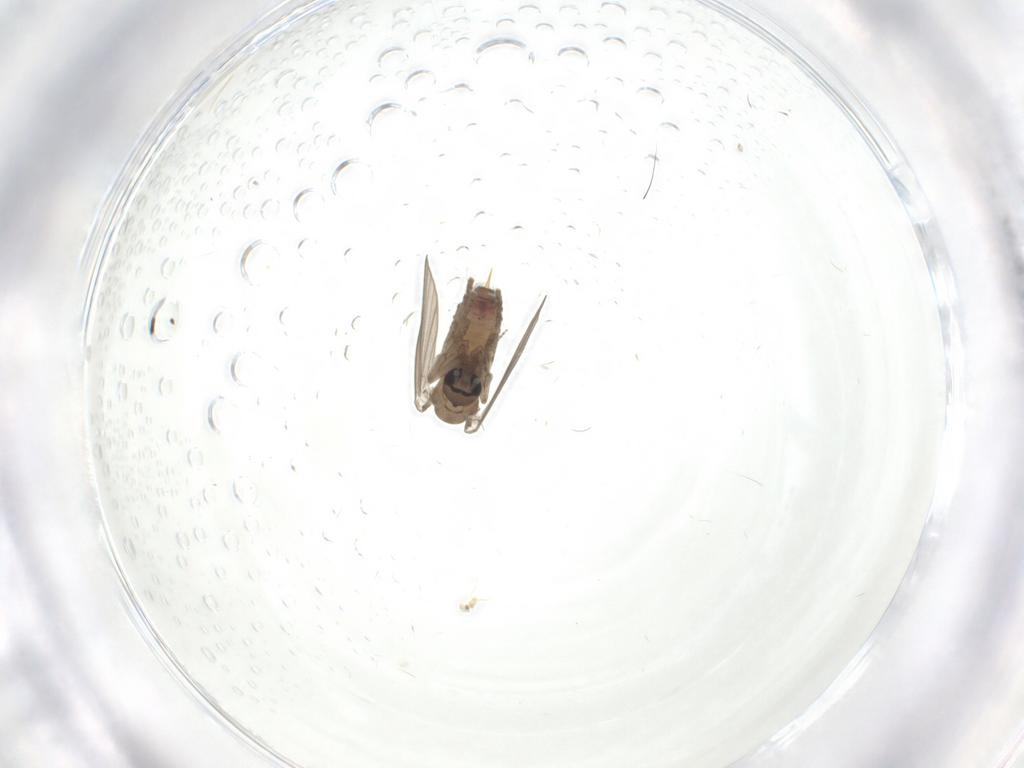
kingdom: Animalia
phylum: Arthropoda
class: Insecta
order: Diptera
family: Psychodidae
